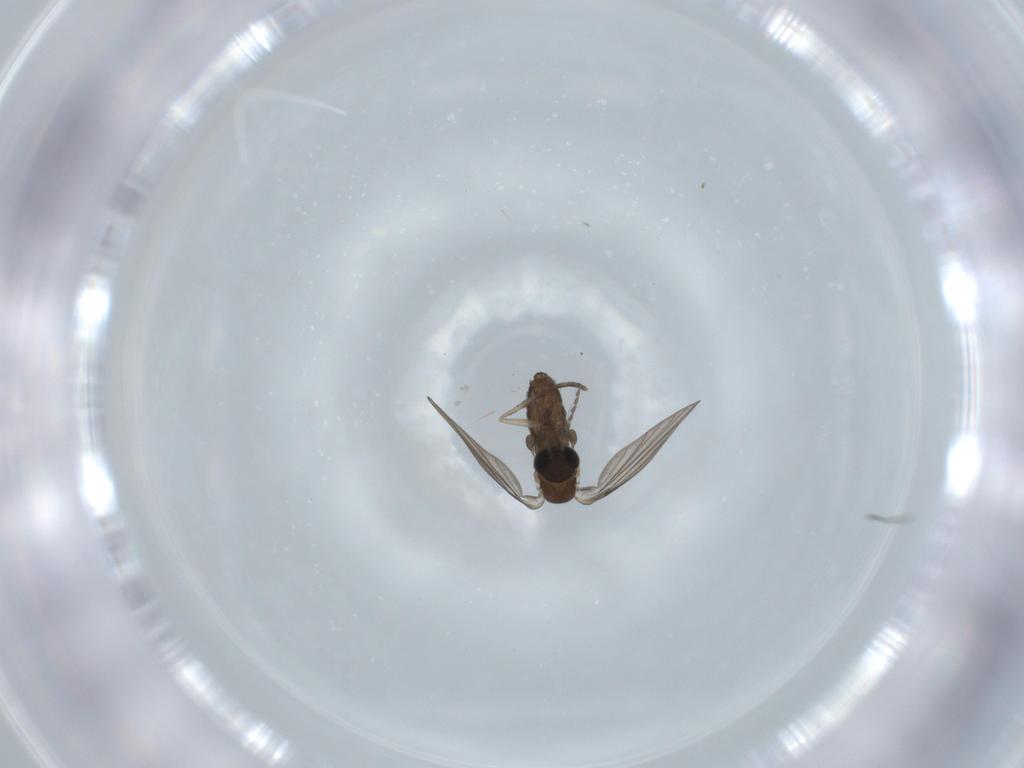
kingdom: Animalia
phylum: Arthropoda
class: Insecta
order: Diptera
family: Psychodidae
